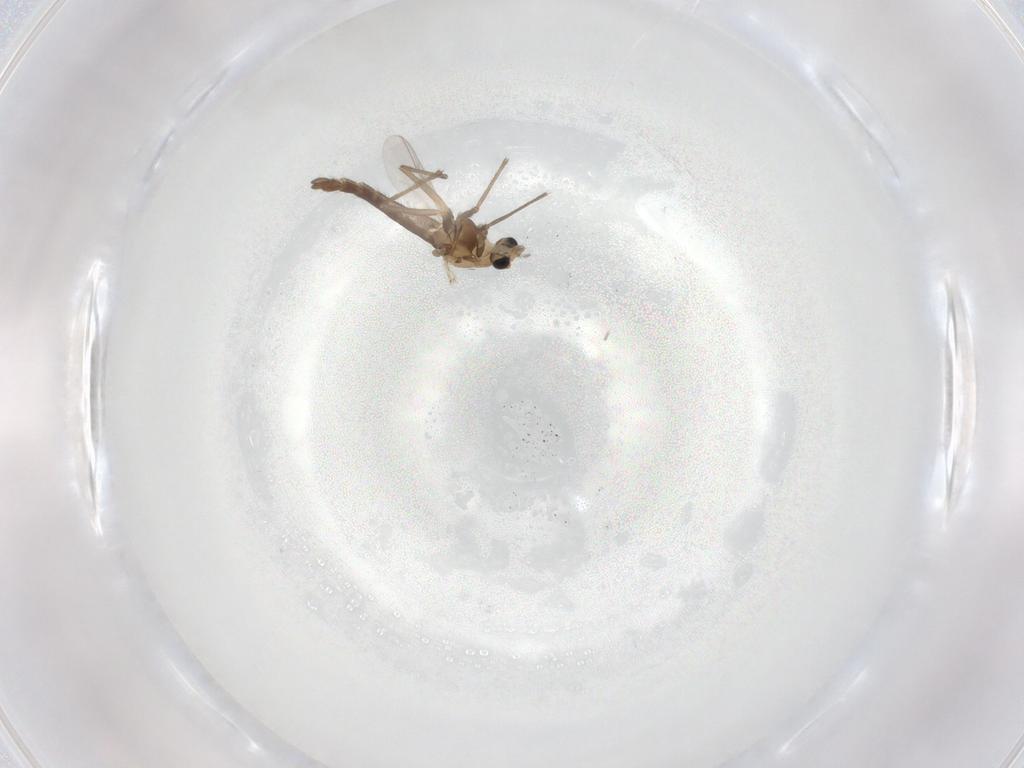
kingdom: Animalia
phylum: Arthropoda
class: Insecta
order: Diptera
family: Chironomidae
